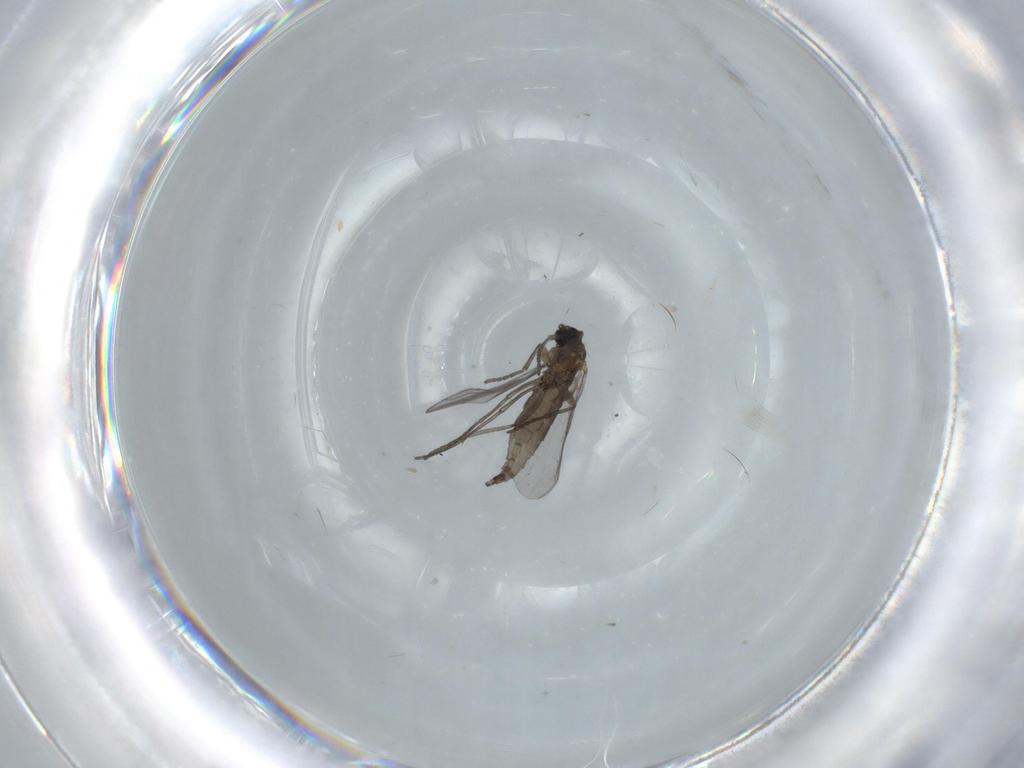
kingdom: Animalia
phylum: Arthropoda
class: Insecta
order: Diptera
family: Cecidomyiidae
